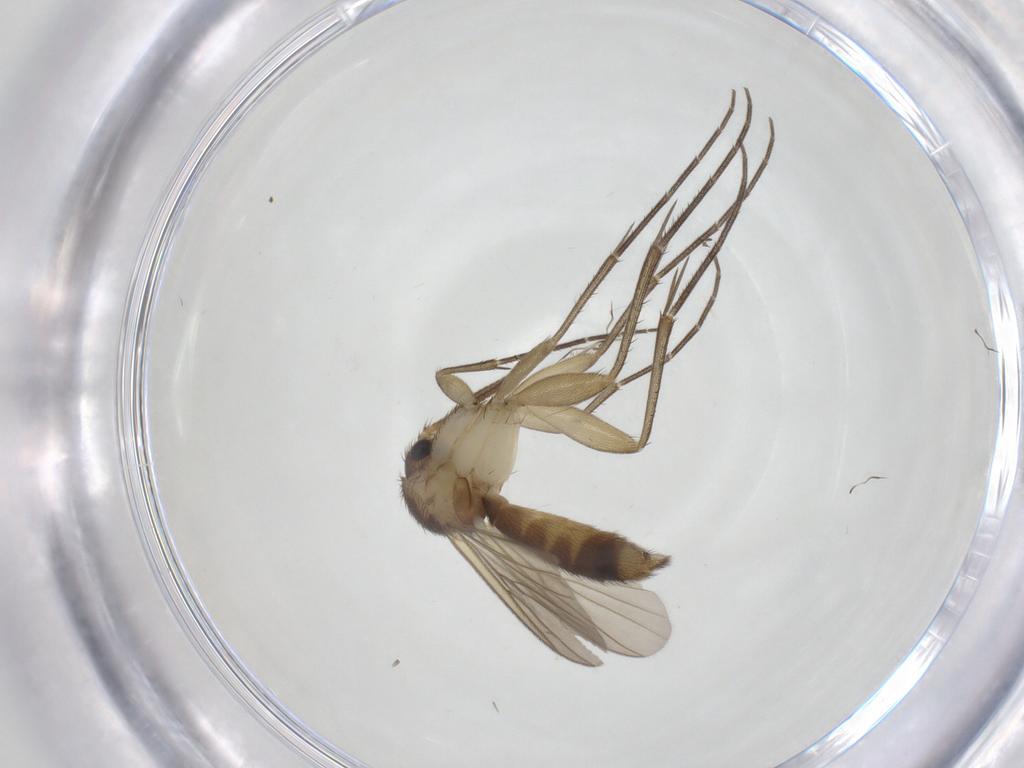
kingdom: Animalia
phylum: Arthropoda
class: Insecta
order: Diptera
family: Mycetophilidae
